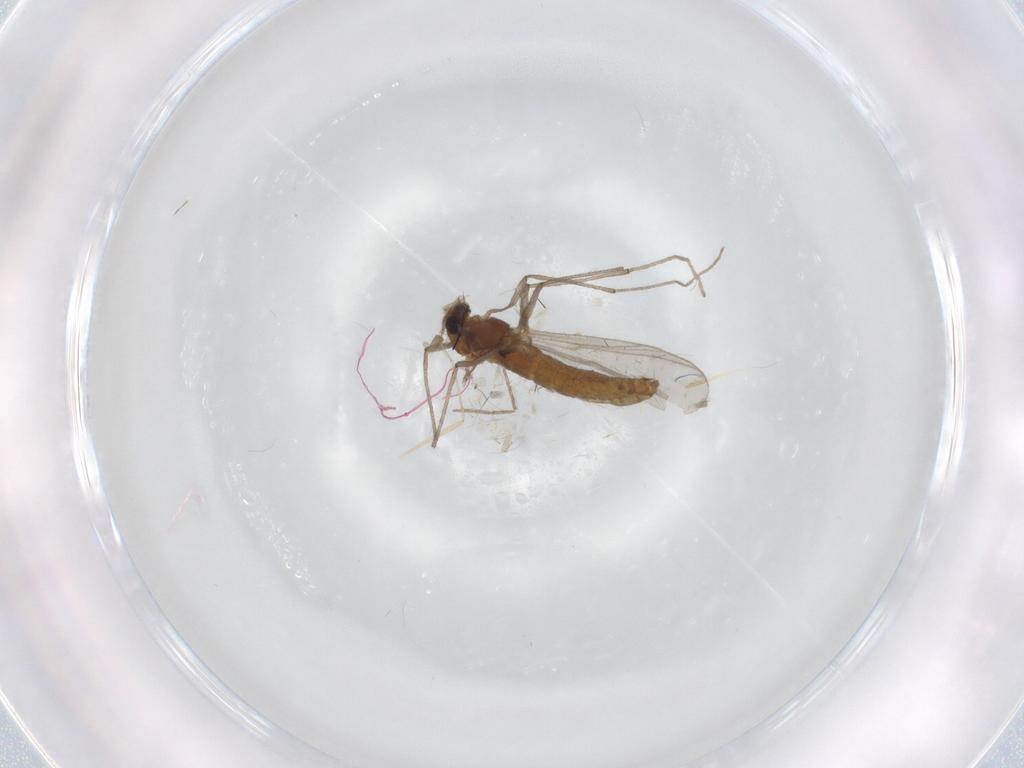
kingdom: Animalia
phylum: Arthropoda
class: Insecta
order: Diptera
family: Chironomidae
